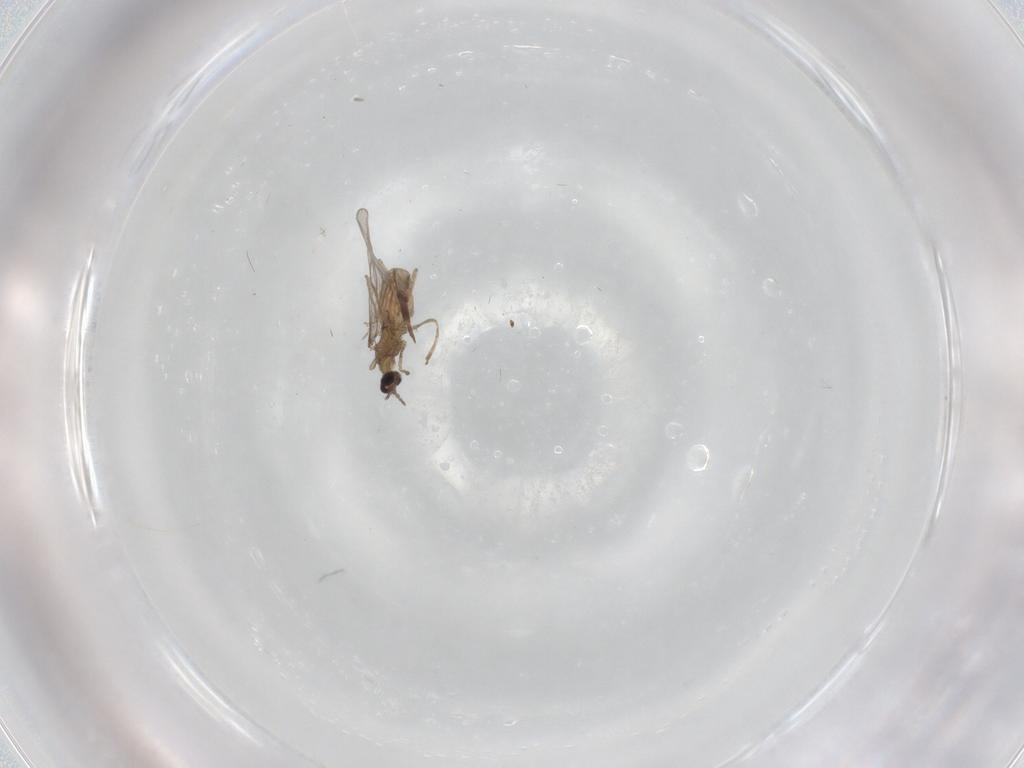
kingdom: Animalia
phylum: Arthropoda
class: Insecta
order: Diptera
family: Cecidomyiidae
